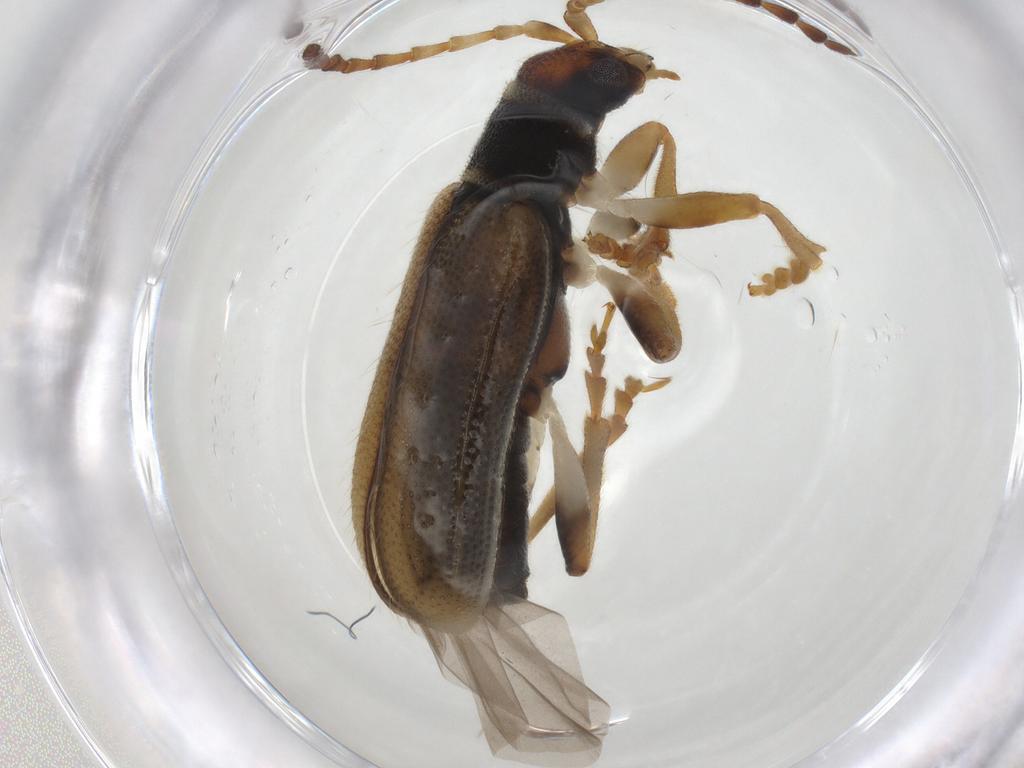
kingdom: Animalia
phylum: Arthropoda
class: Insecta
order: Coleoptera
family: Chrysomelidae
